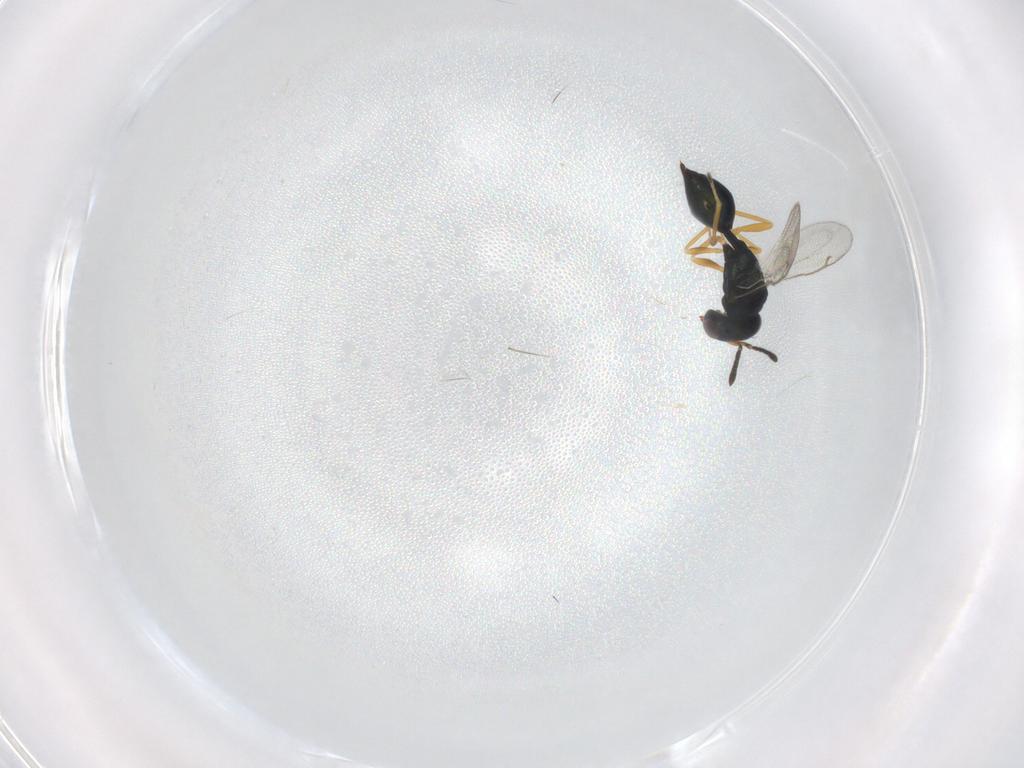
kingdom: Animalia
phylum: Arthropoda
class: Insecta
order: Hymenoptera
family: Pteromalidae
